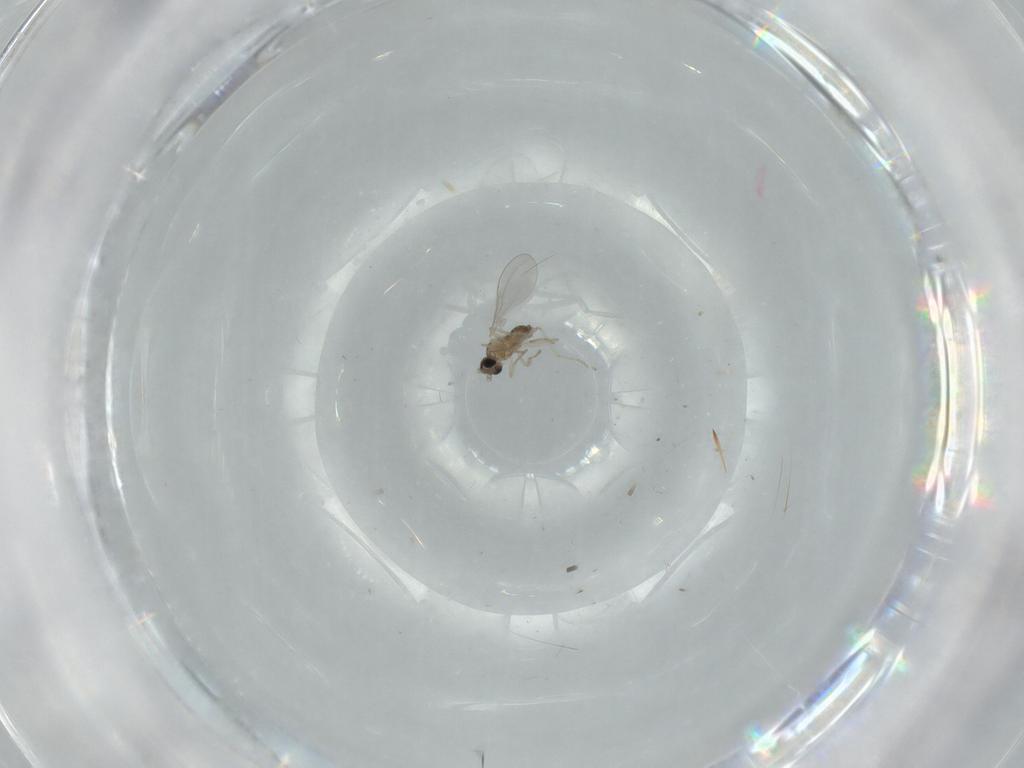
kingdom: Animalia
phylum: Arthropoda
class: Insecta
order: Diptera
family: Cecidomyiidae
